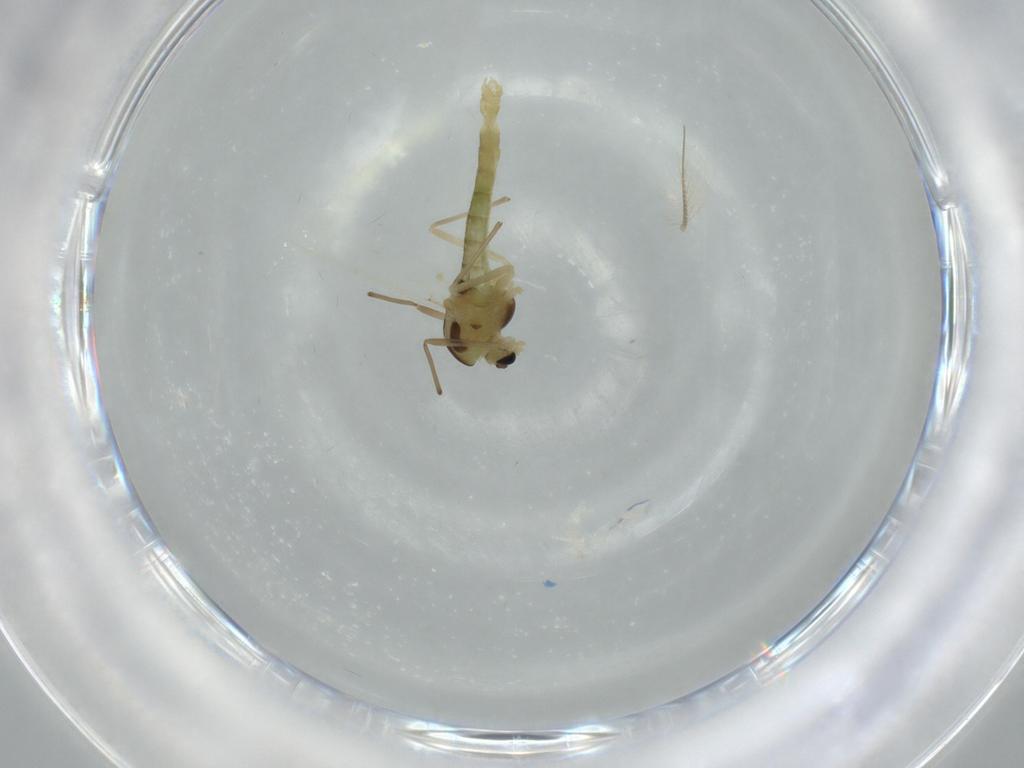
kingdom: Animalia
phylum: Arthropoda
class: Insecta
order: Diptera
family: Chironomidae
